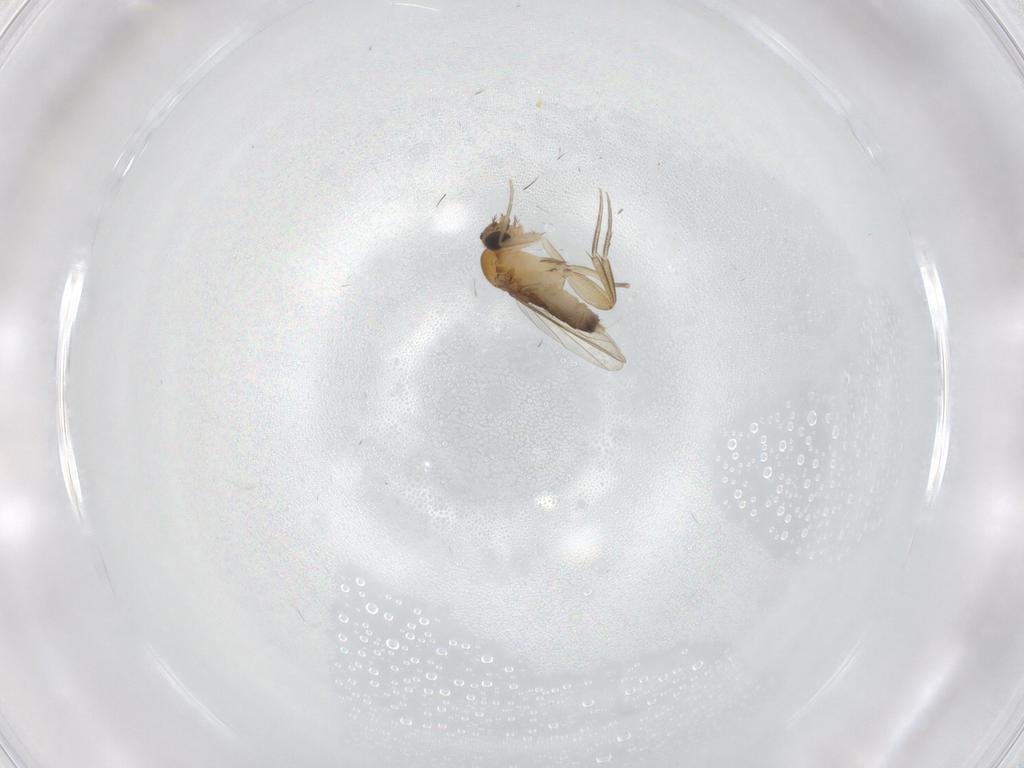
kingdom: Animalia
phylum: Arthropoda
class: Insecta
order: Diptera
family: Phoridae
